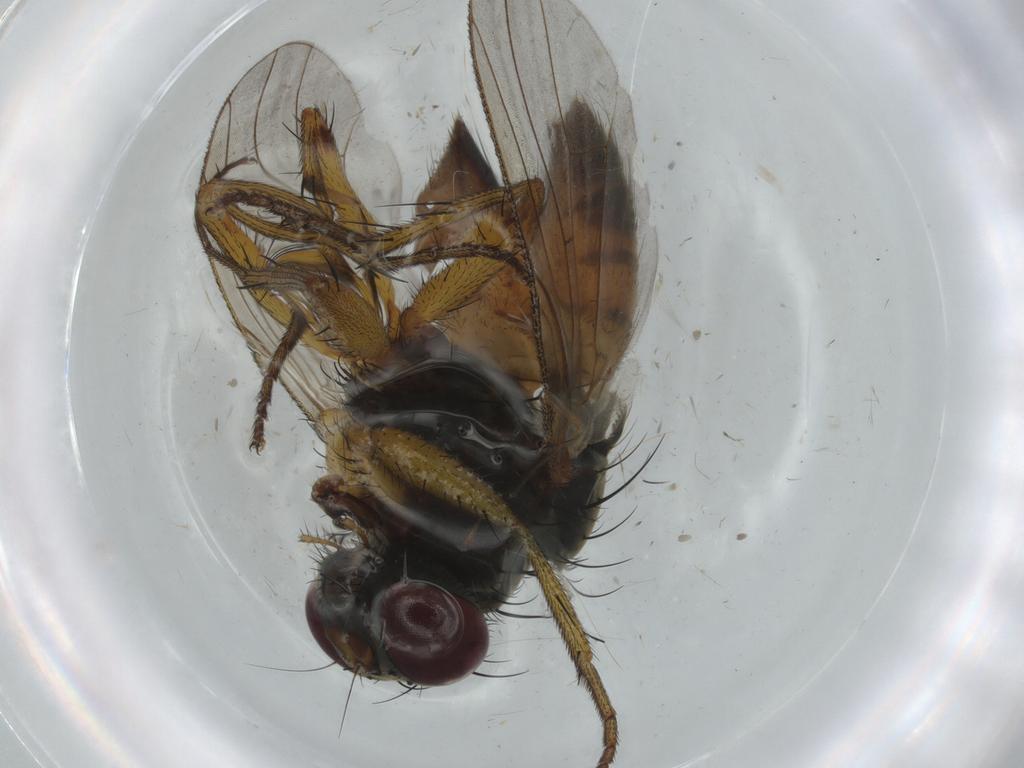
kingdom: Animalia
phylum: Arthropoda
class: Insecta
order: Diptera
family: Muscidae
